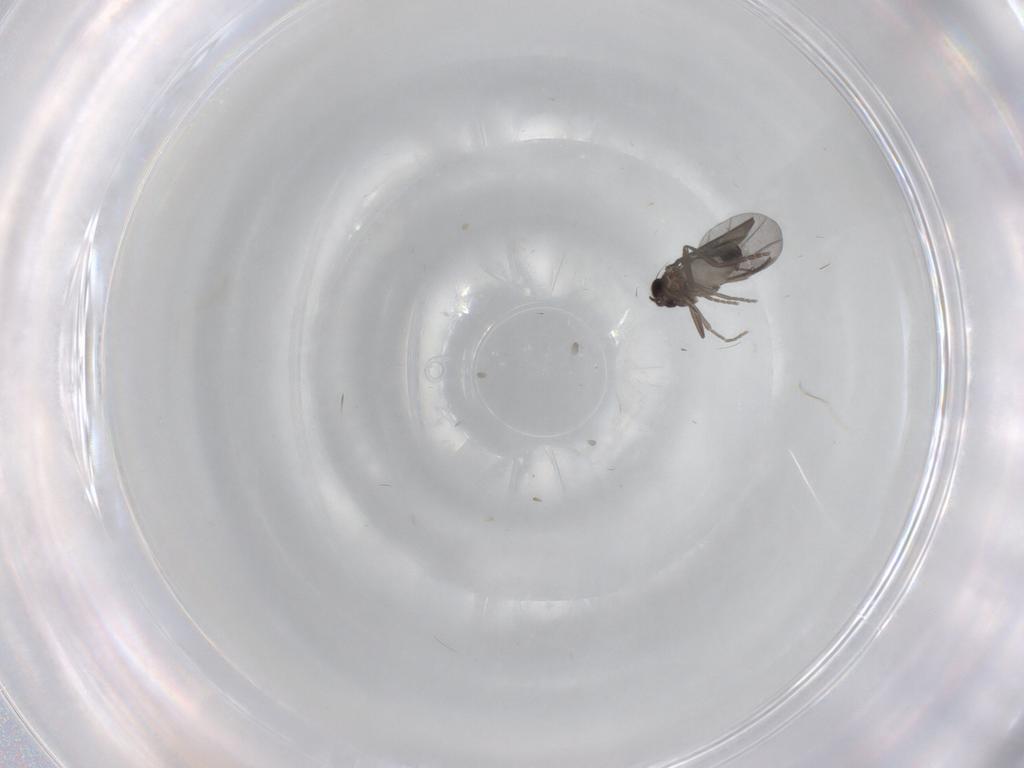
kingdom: Animalia
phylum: Arthropoda
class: Insecta
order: Diptera
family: Phoridae
